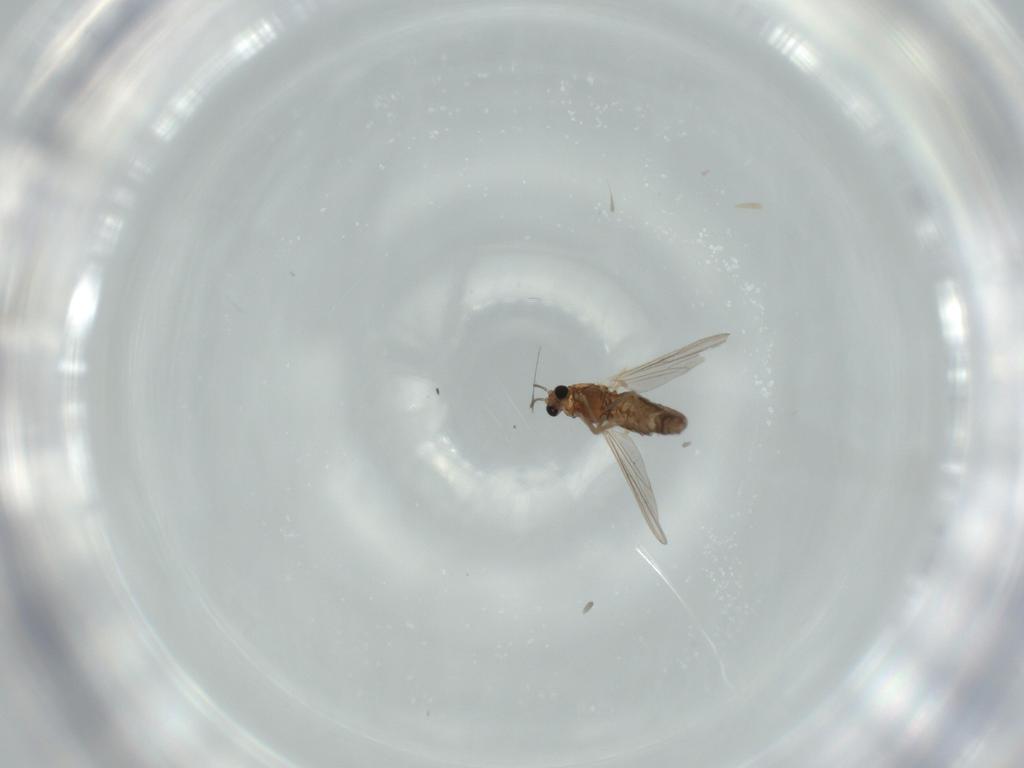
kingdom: Animalia
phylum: Arthropoda
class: Insecta
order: Diptera
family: Chironomidae
